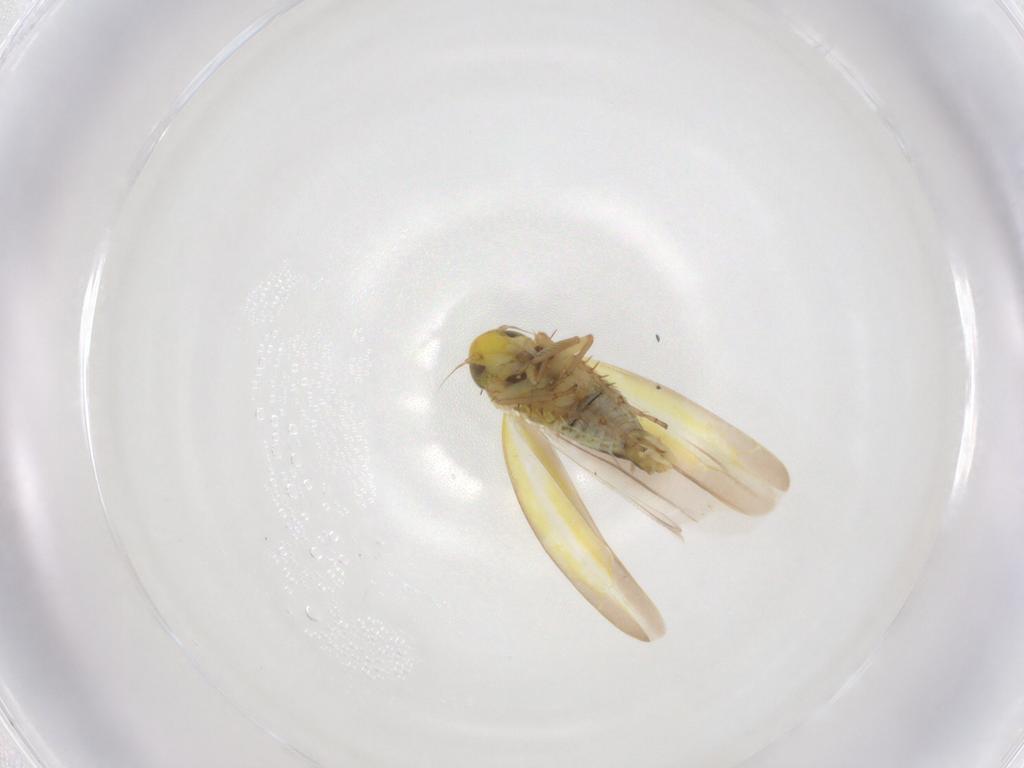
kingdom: Animalia
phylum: Arthropoda
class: Insecta
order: Hemiptera
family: Cicadellidae
